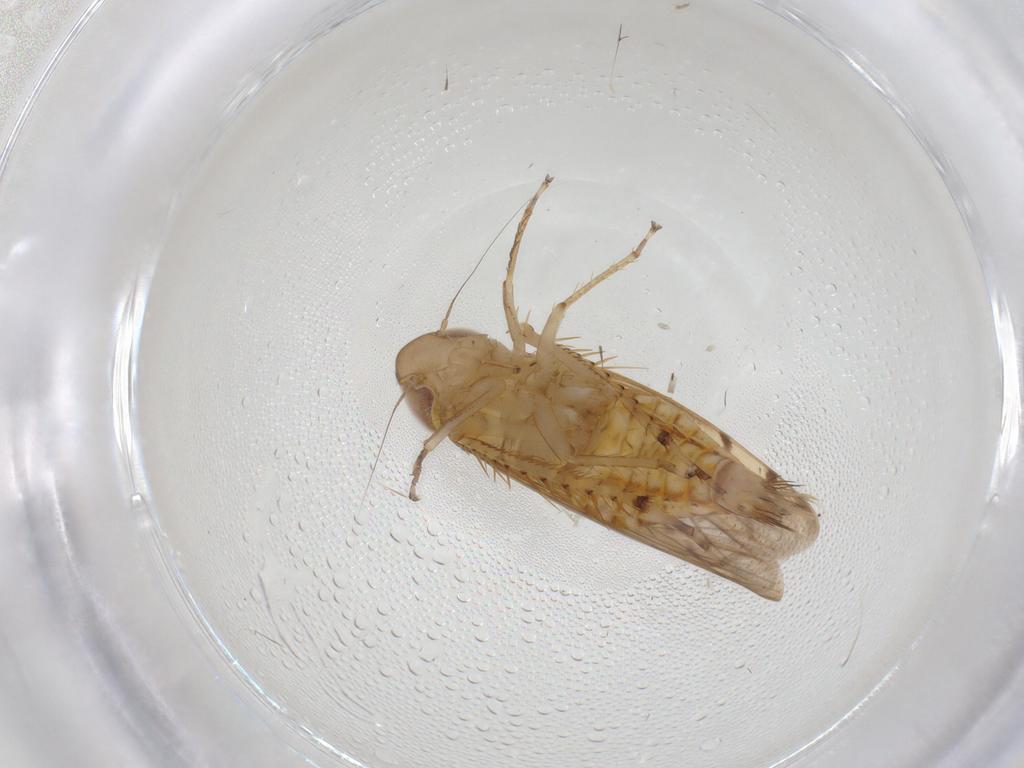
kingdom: Animalia
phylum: Arthropoda
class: Insecta
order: Hemiptera
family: Cicadellidae
